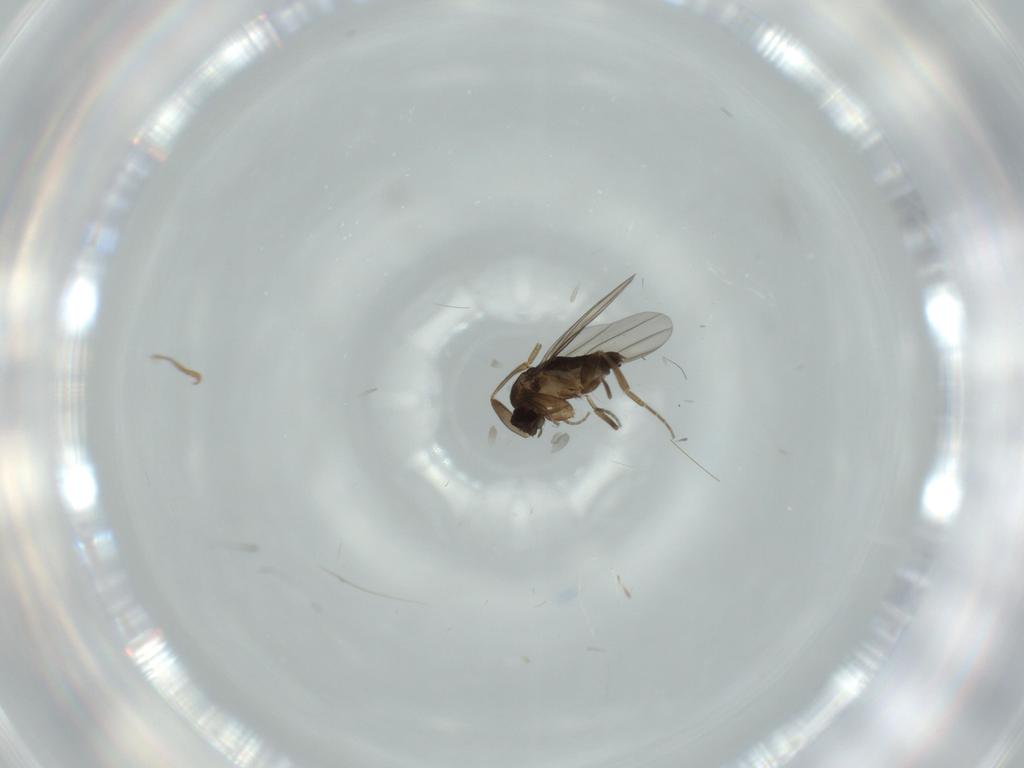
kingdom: Animalia
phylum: Arthropoda
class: Insecta
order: Diptera
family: Phoridae
